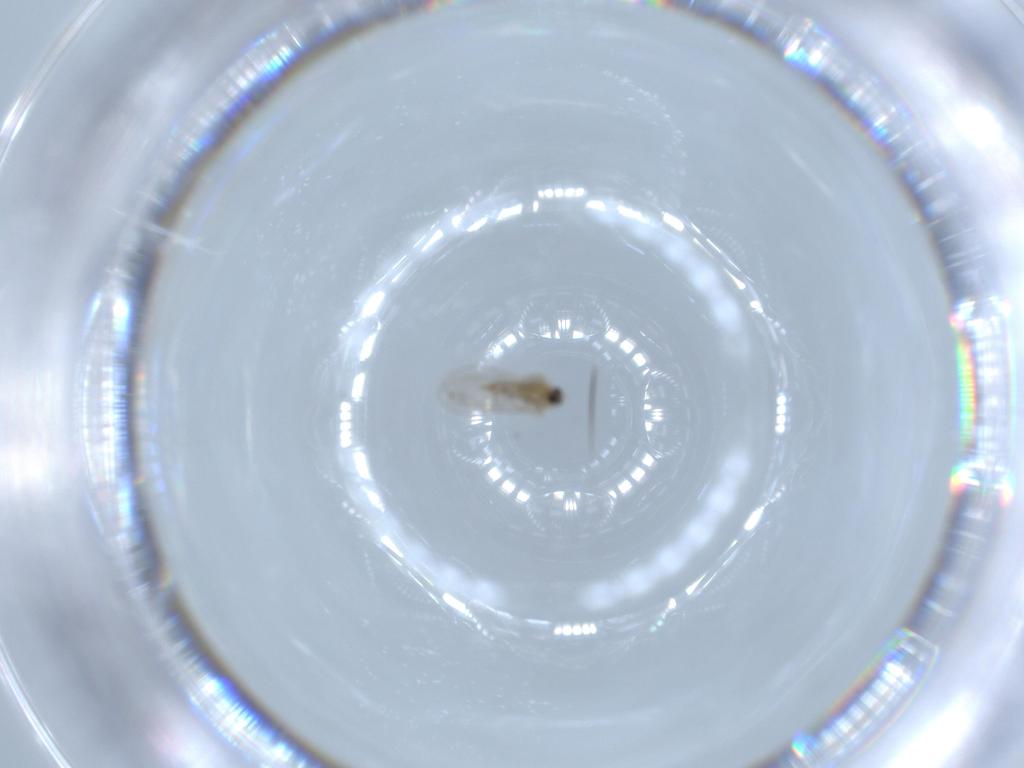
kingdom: Animalia
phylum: Arthropoda
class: Insecta
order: Diptera
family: Cecidomyiidae
